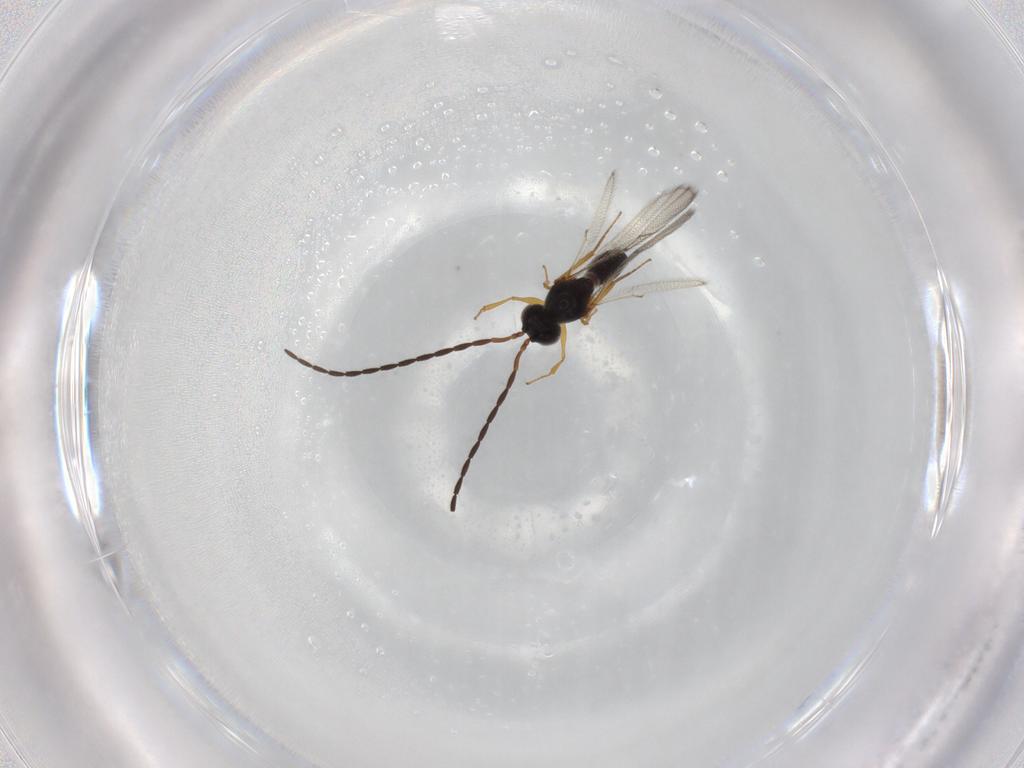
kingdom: Animalia
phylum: Arthropoda
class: Insecta
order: Hymenoptera
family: Figitidae
